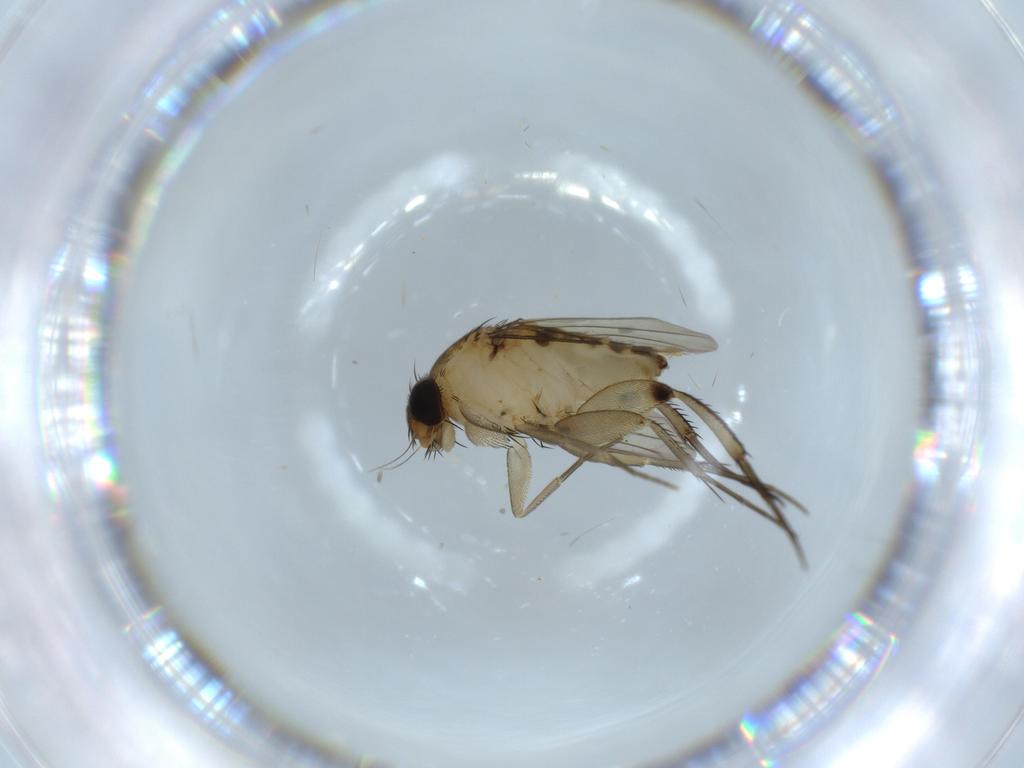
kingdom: Animalia
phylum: Arthropoda
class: Insecta
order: Diptera
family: Phoridae
